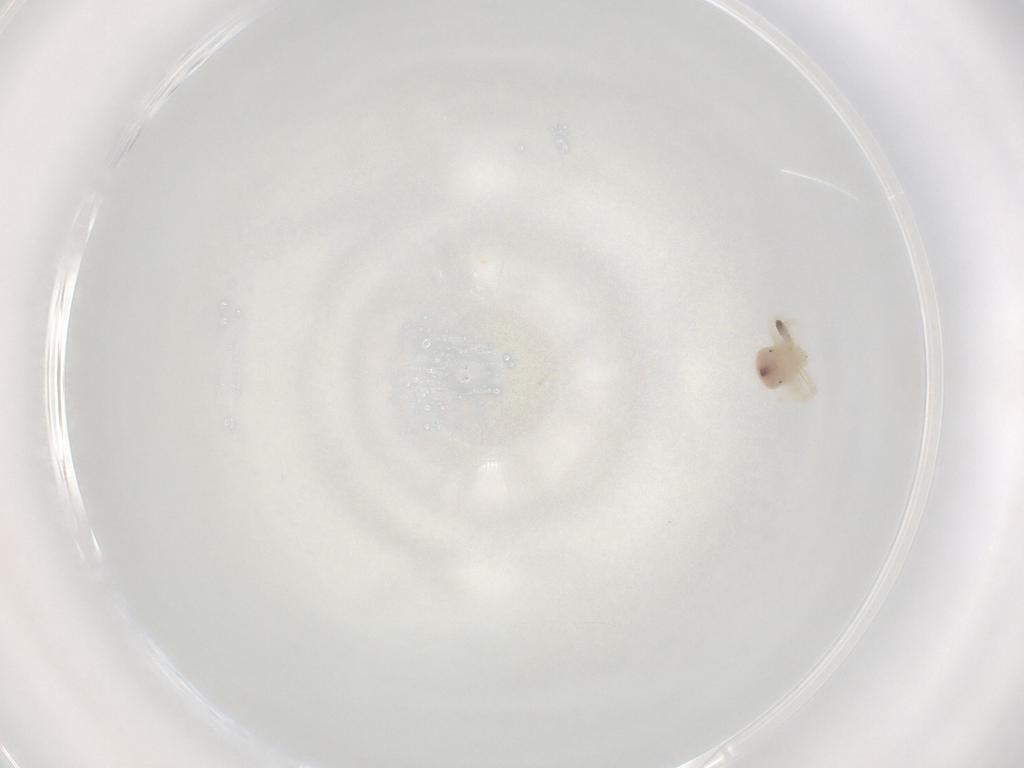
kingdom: Animalia
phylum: Arthropoda
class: Arachnida
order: Trombidiformes
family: Anystidae
